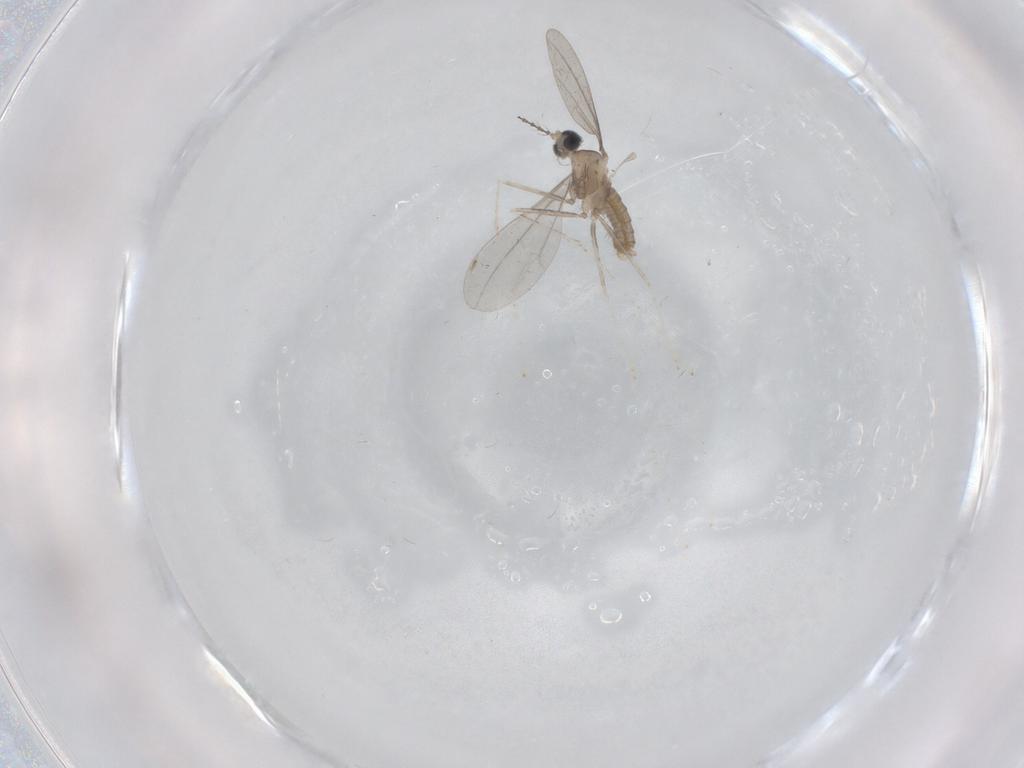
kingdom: Animalia
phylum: Arthropoda
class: Insecta
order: Diptera
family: Cecidomyiidae
